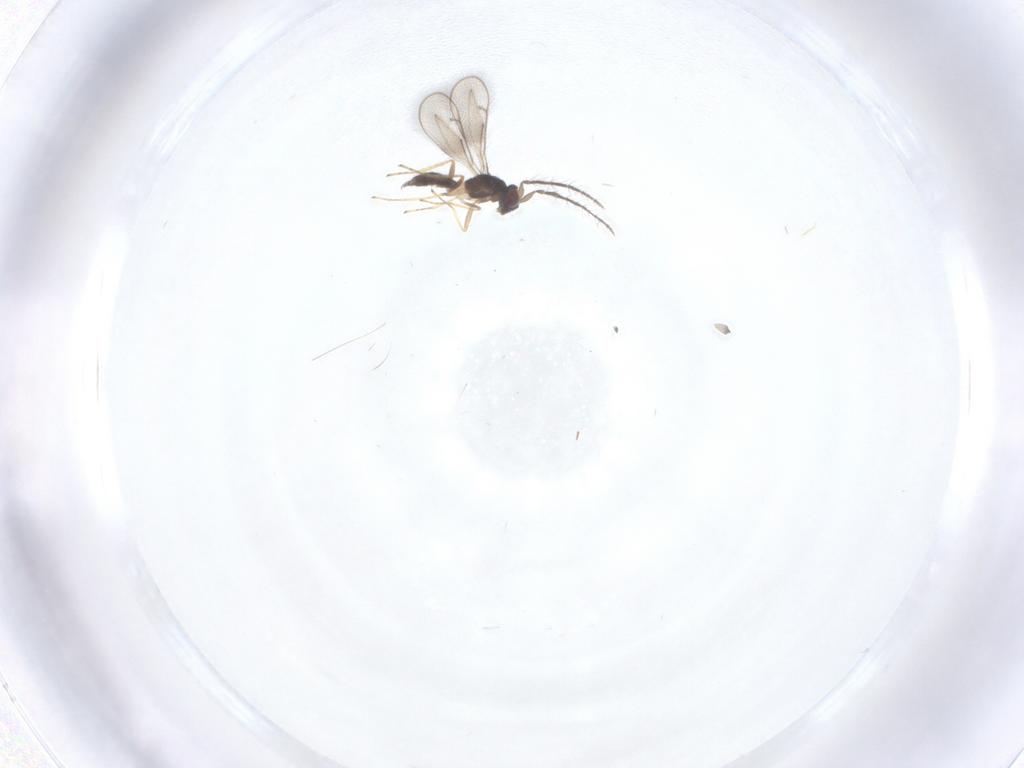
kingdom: Animalia
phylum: Arthropoda
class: Insecta
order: Hymenoptera
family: Eulophidae
